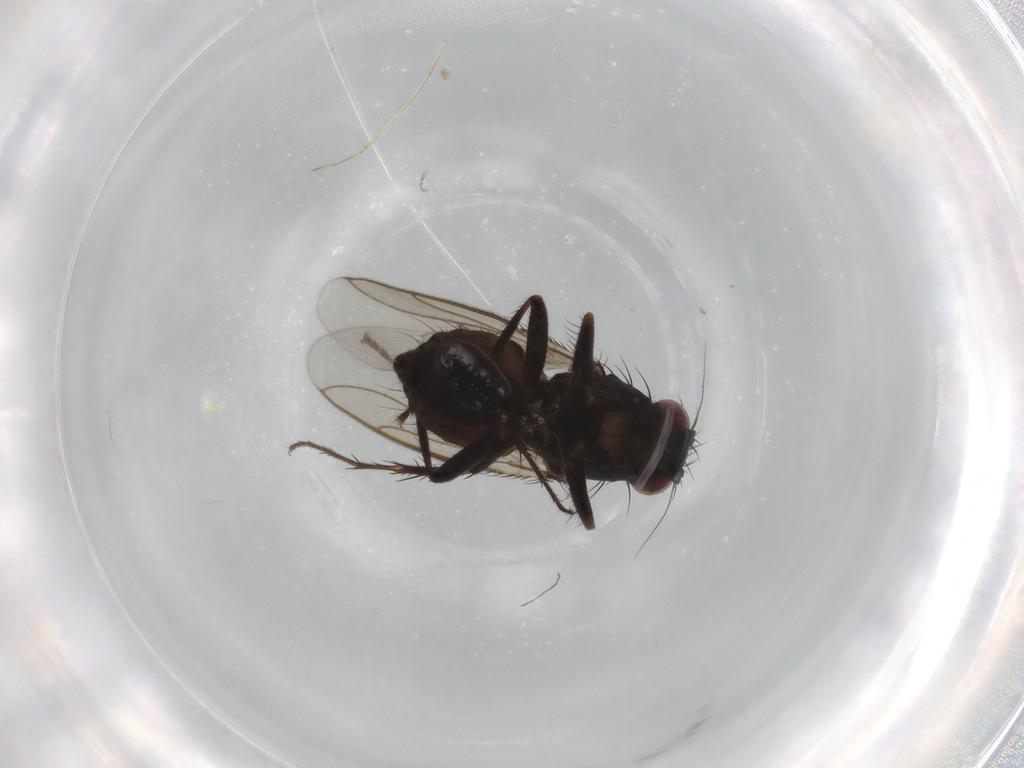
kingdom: Animalia
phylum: Arthropoda
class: Insecta
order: Diptera
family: Sphaeroceridae
